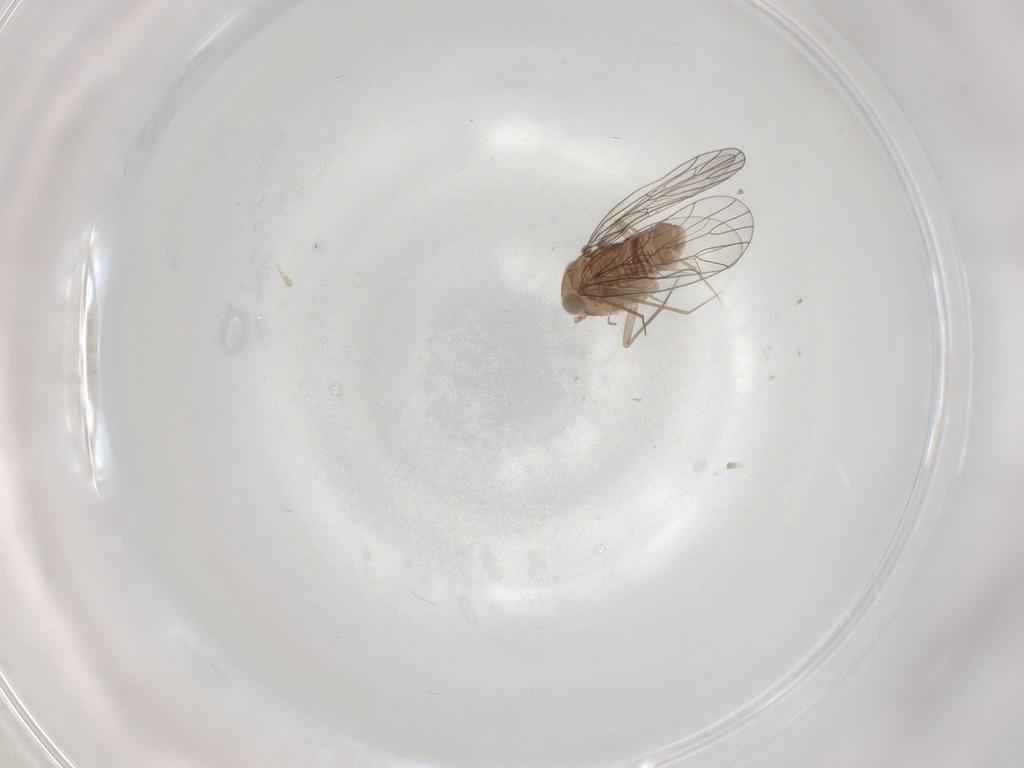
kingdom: Animalia
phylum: Arthropoda
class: Insecta
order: Psocodea
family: Amphientomidae
